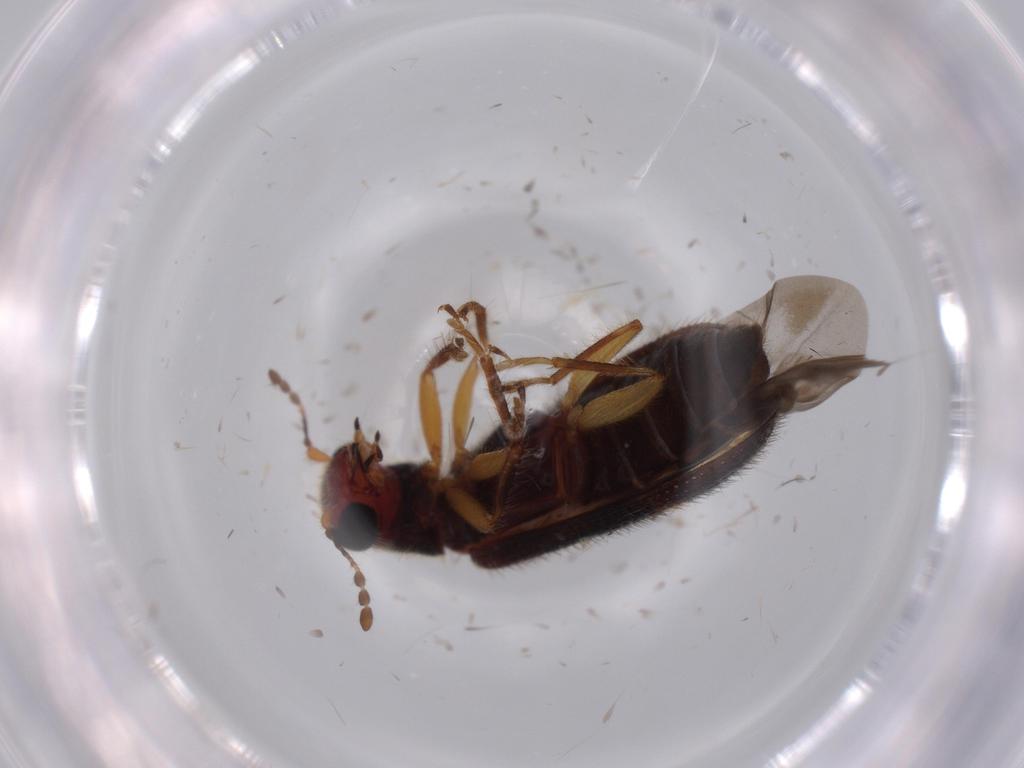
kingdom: Animalia
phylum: Arthropoda
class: Insecta
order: Coleoptera
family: Cleridae
